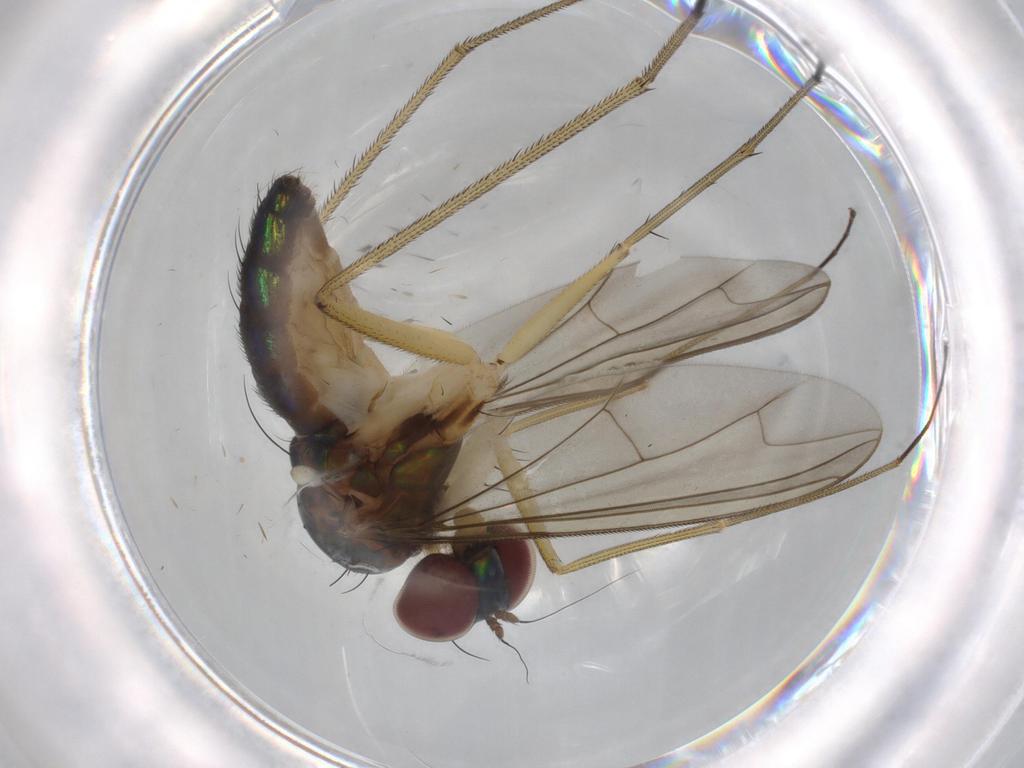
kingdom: Animalia
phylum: Arthropoda
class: Insecta
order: Diptera
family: Dolichopodidae
